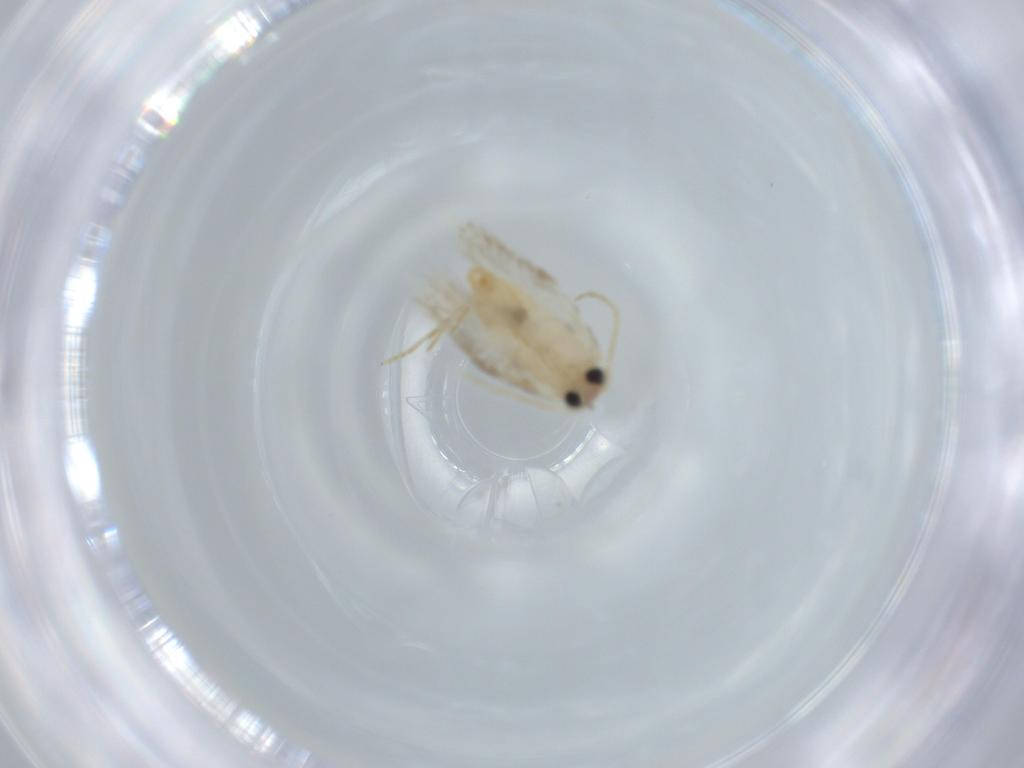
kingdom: Animalia
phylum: Arthropoda
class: Insecta
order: Lepidoptera
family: Nepticulidae
